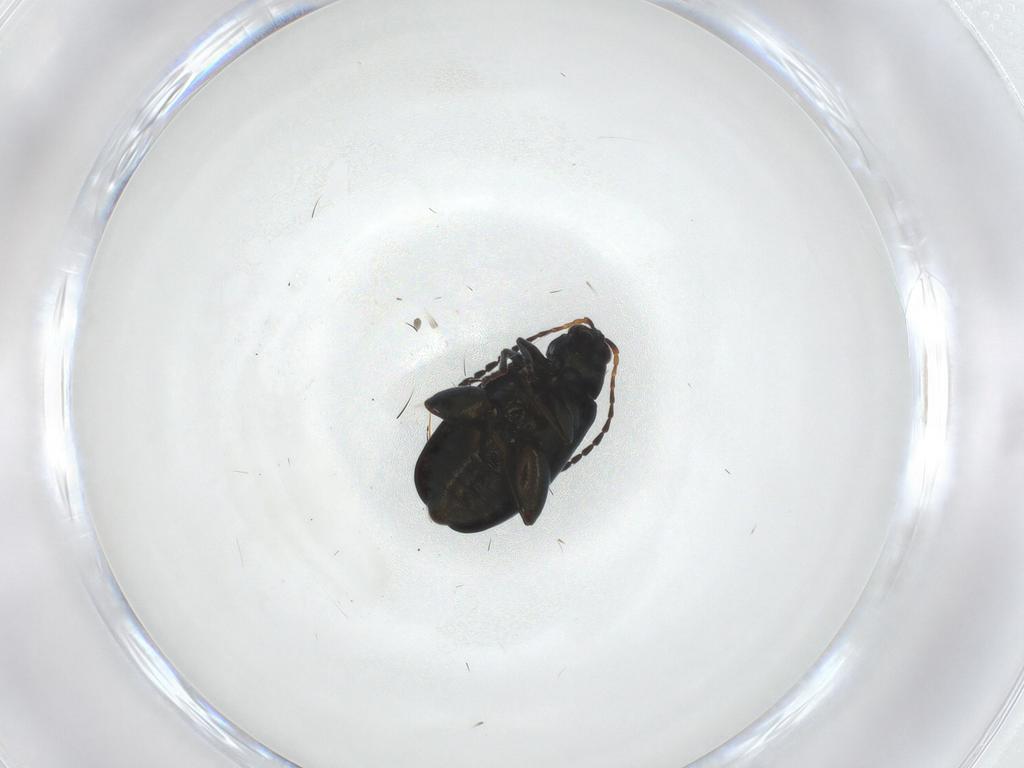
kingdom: Animalia
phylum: Arthropoda
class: Insecta
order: Coleoptera
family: Chrysomelidae
